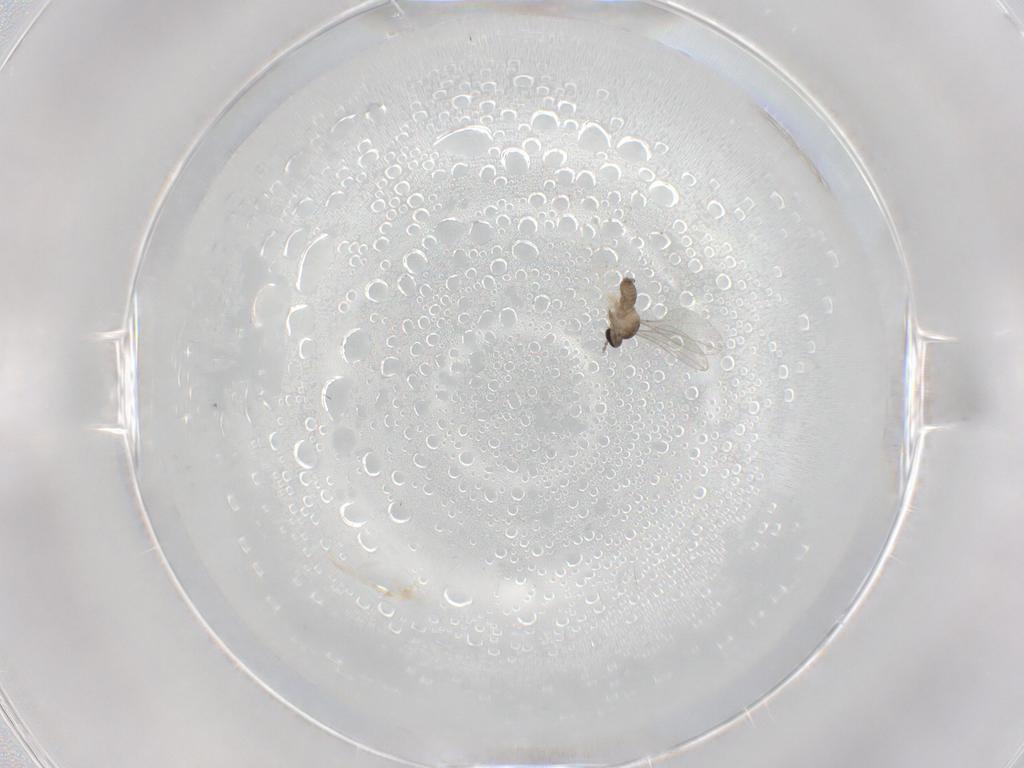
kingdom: Animalia
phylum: Arthropoda
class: Insecta
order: Diptera
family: Cecidomyiidae
